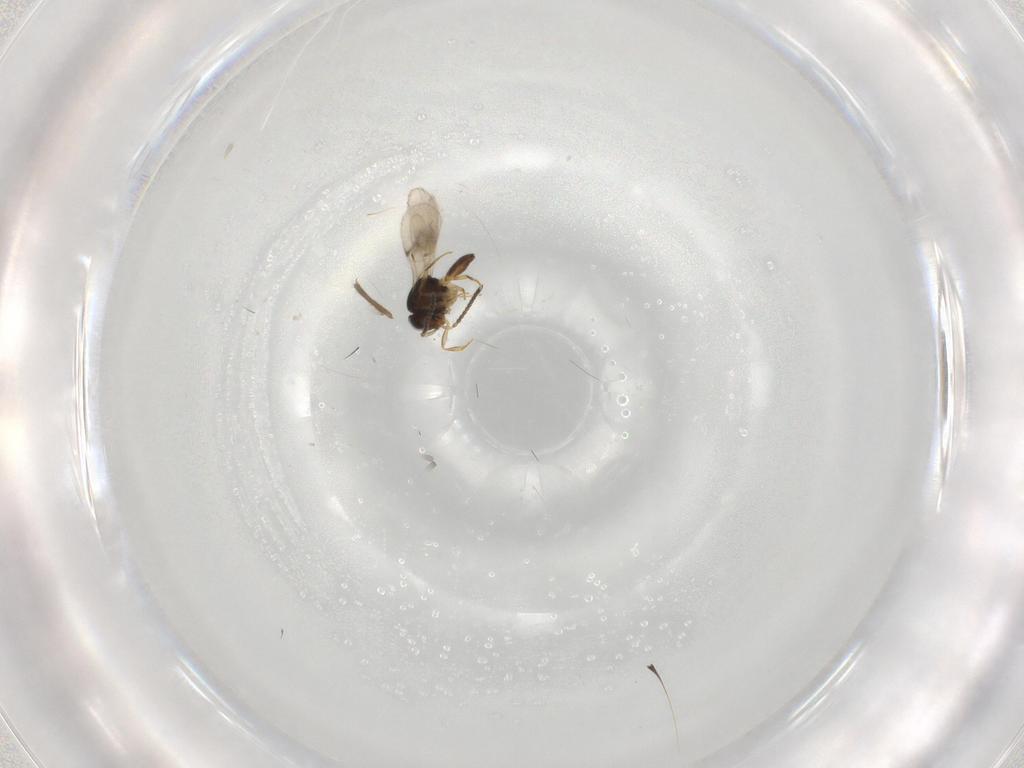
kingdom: Animalia
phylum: Arthropoda
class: Insecta
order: Hymenoptera
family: Scelionidae
